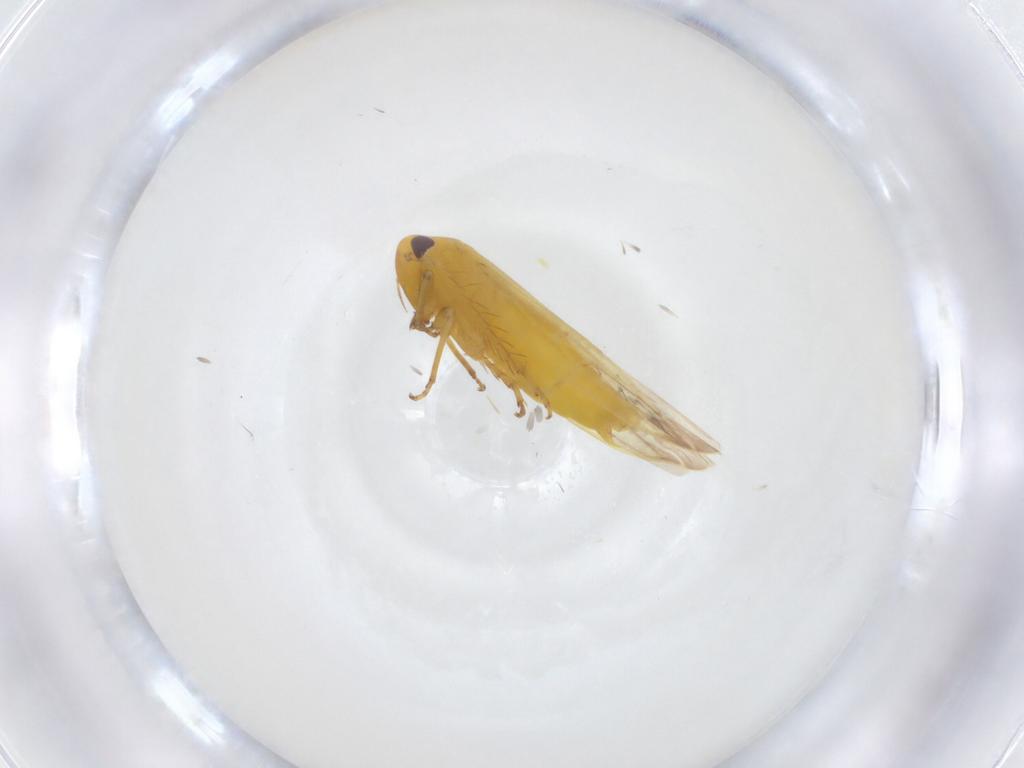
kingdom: Animalia
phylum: Arthropoda
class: Insecta
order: Hemiptera
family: Cicadellidae
